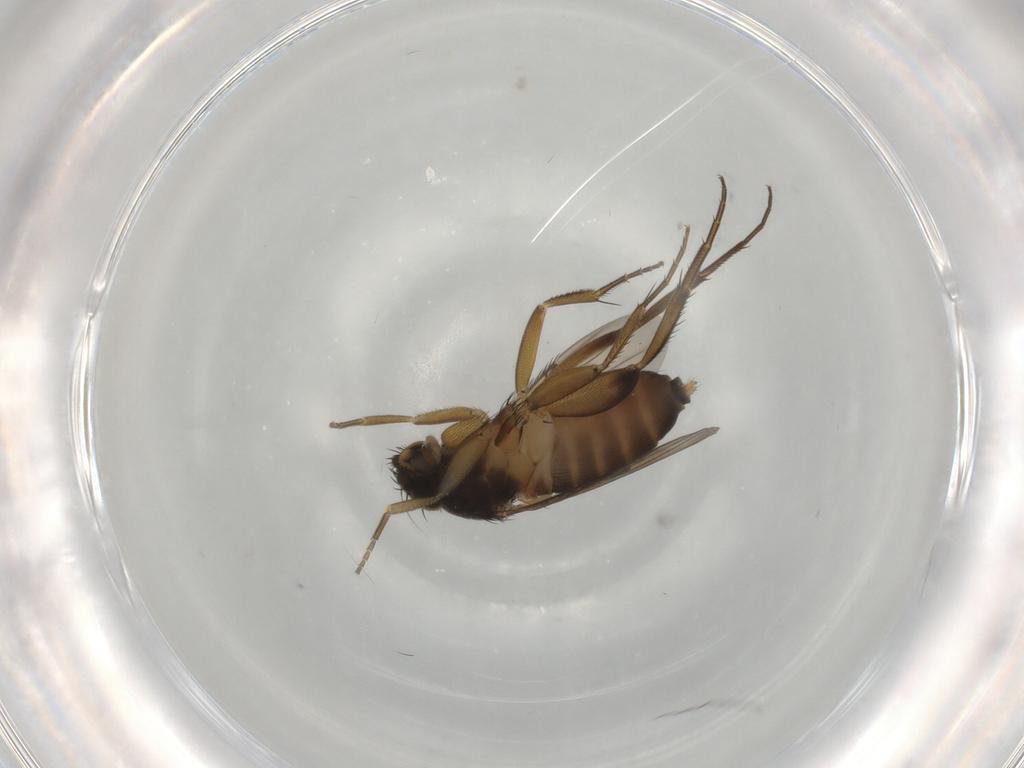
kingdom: Animalia
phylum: Arthropoda
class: Insecta
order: Diptera
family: Phoridae
